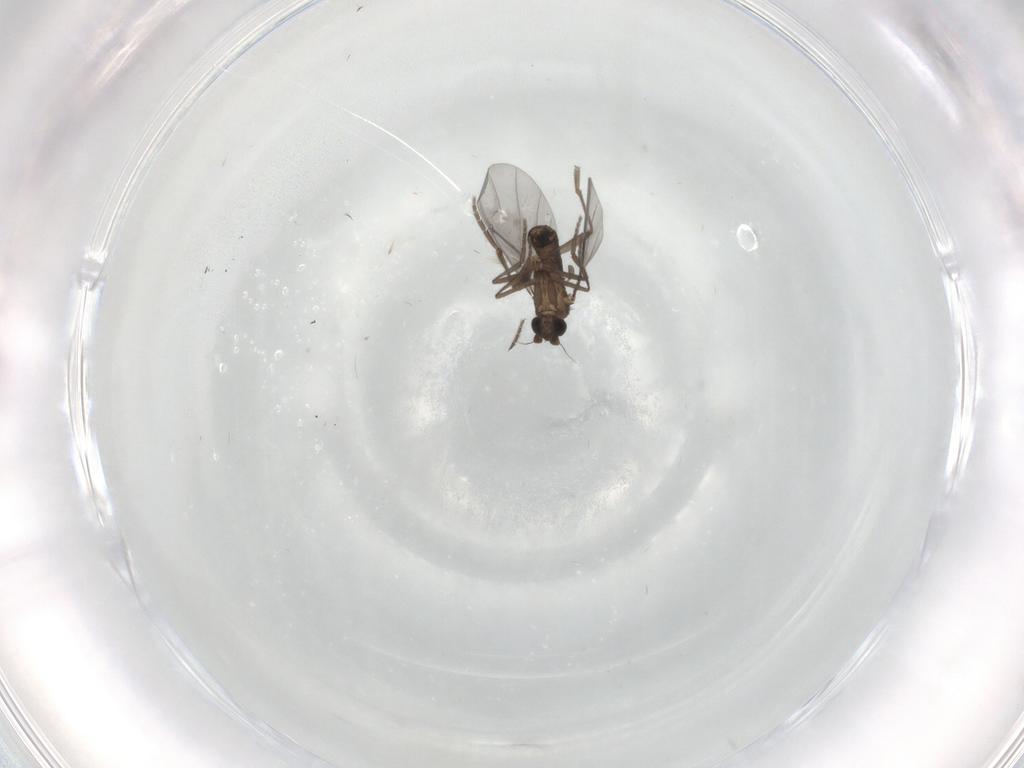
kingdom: Animalia
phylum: Arthropoda
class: Insecta
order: Diptera
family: Phoridae
